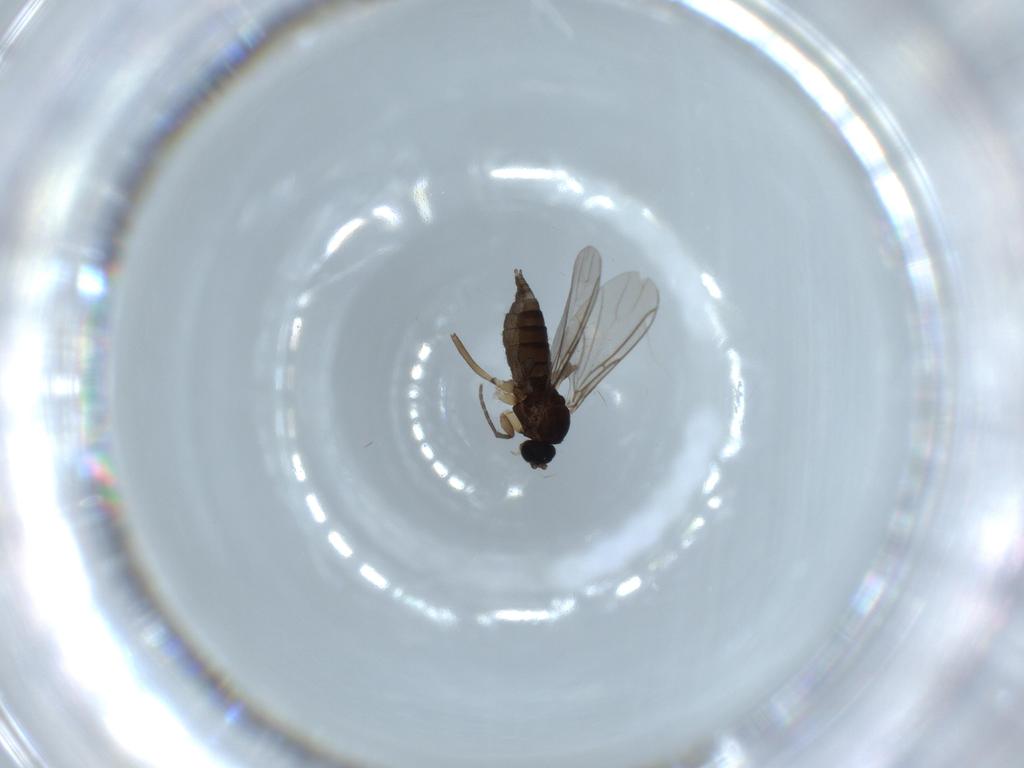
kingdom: Animalia
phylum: Arthropoda
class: Insecta
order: Diptera
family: Sciaridae
